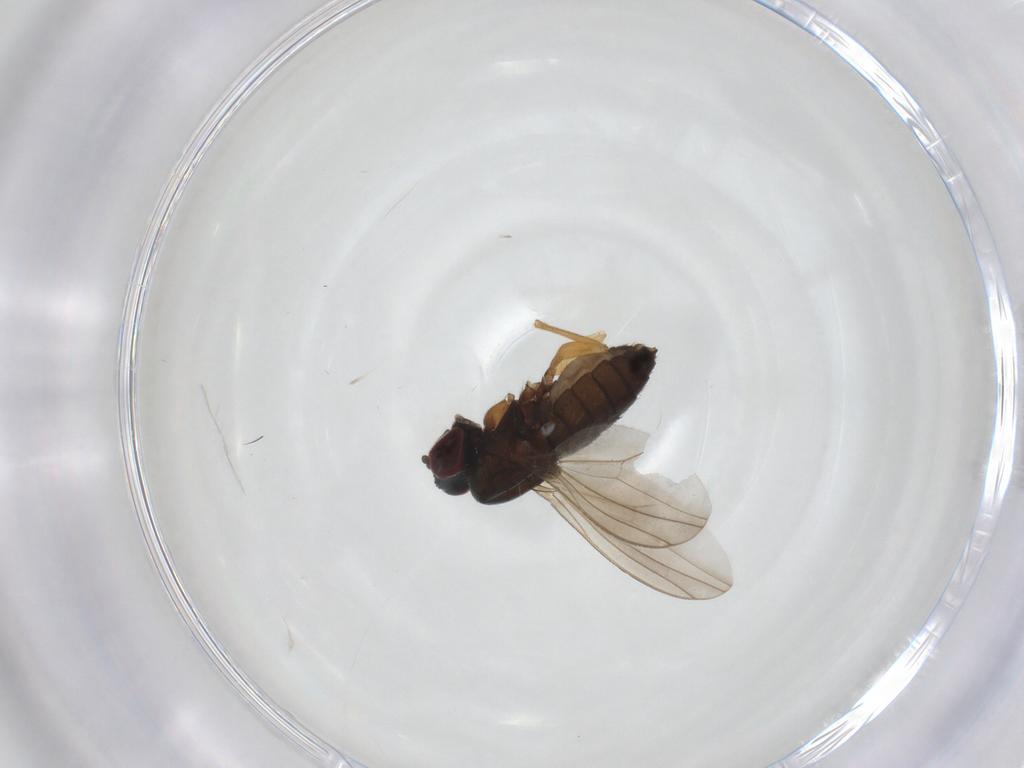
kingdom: Animalia
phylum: Arthropoda
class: Insecta
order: Diptera
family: Dolichopodidae
